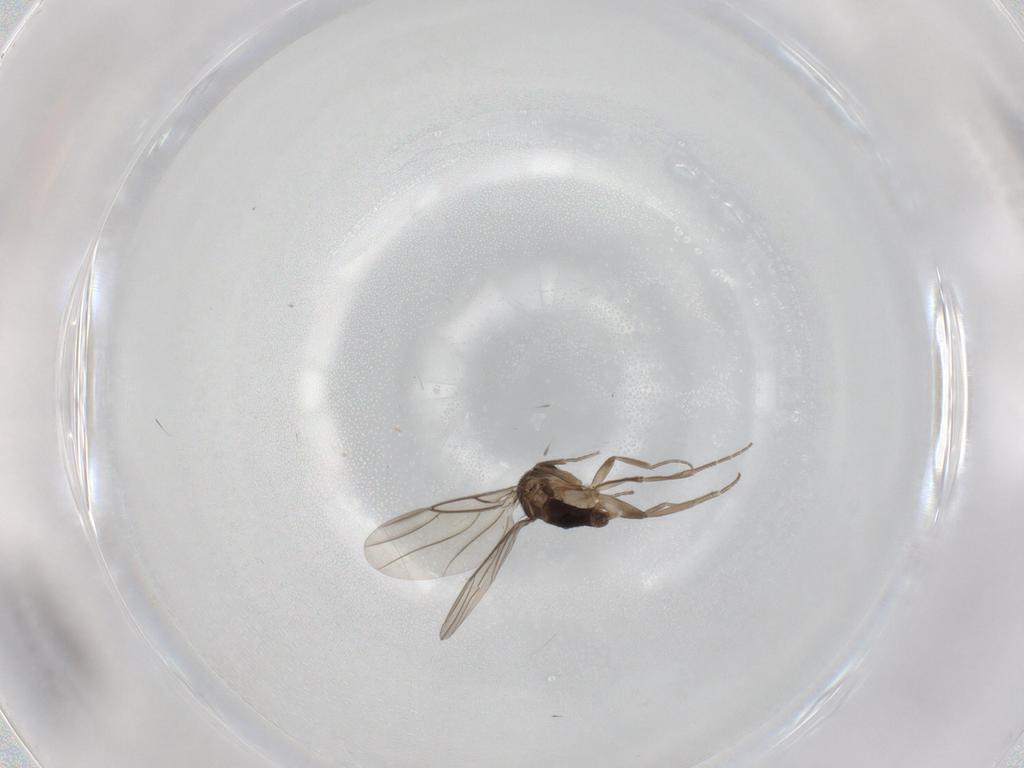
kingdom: Animalia
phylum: Arthropoda
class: Insecta
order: Diptera
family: Phoridae
